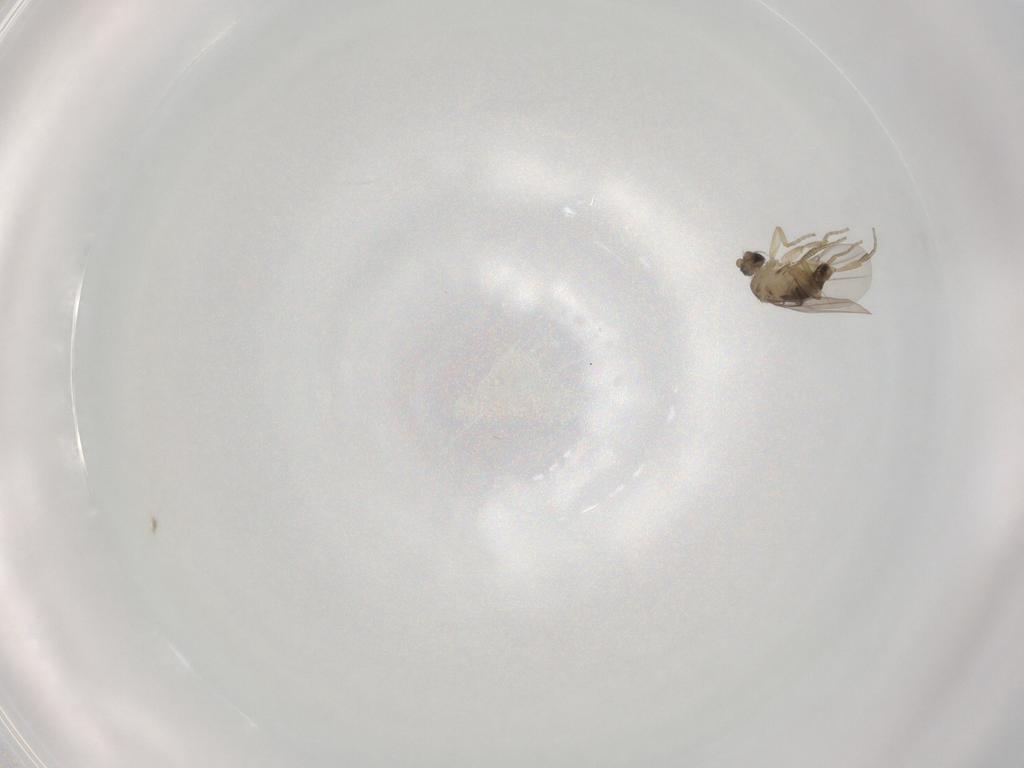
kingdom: Animalia
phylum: Arthropoda
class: Insecta
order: Diptera
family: Phoridae
